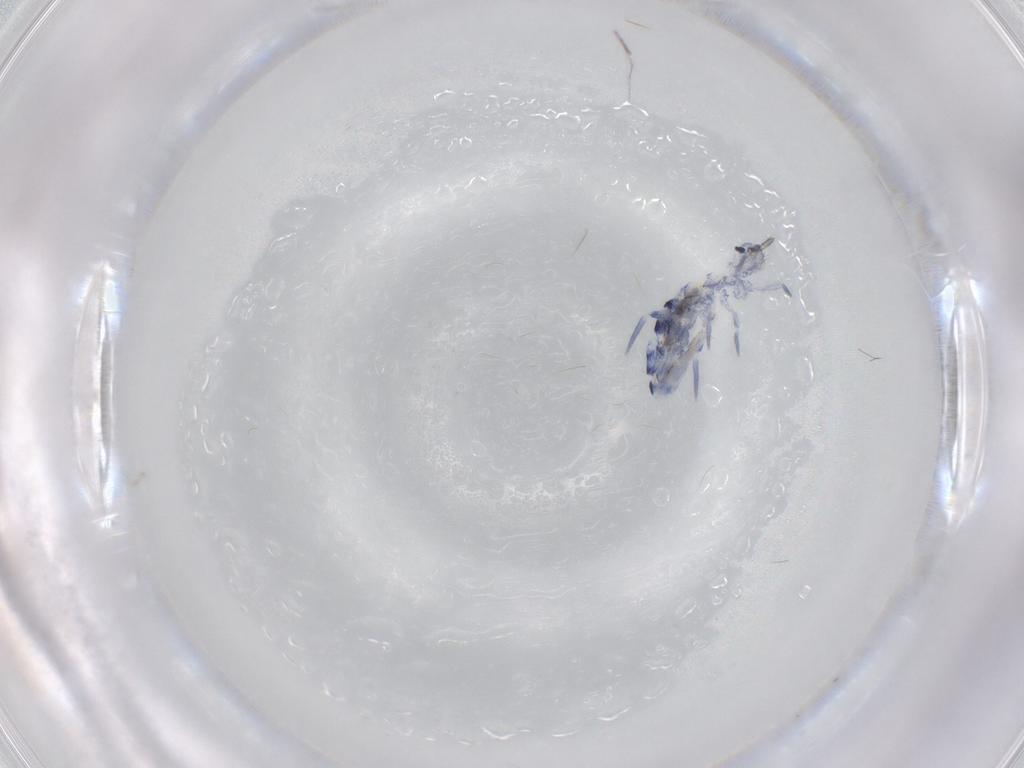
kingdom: Animalia
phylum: Arthropoda
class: Collembola
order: Entomobryomorpha
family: Entomobryidae
